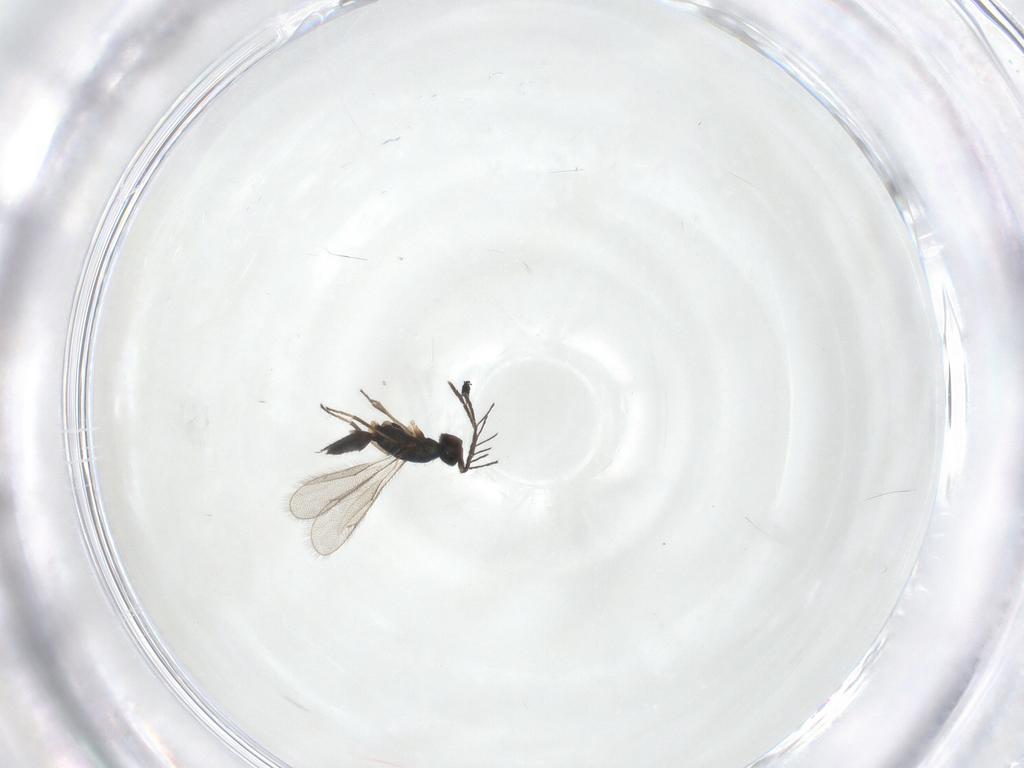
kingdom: Animalia
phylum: Arthropoda
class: Insecta
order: Hymenoptera
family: Eulophidae
